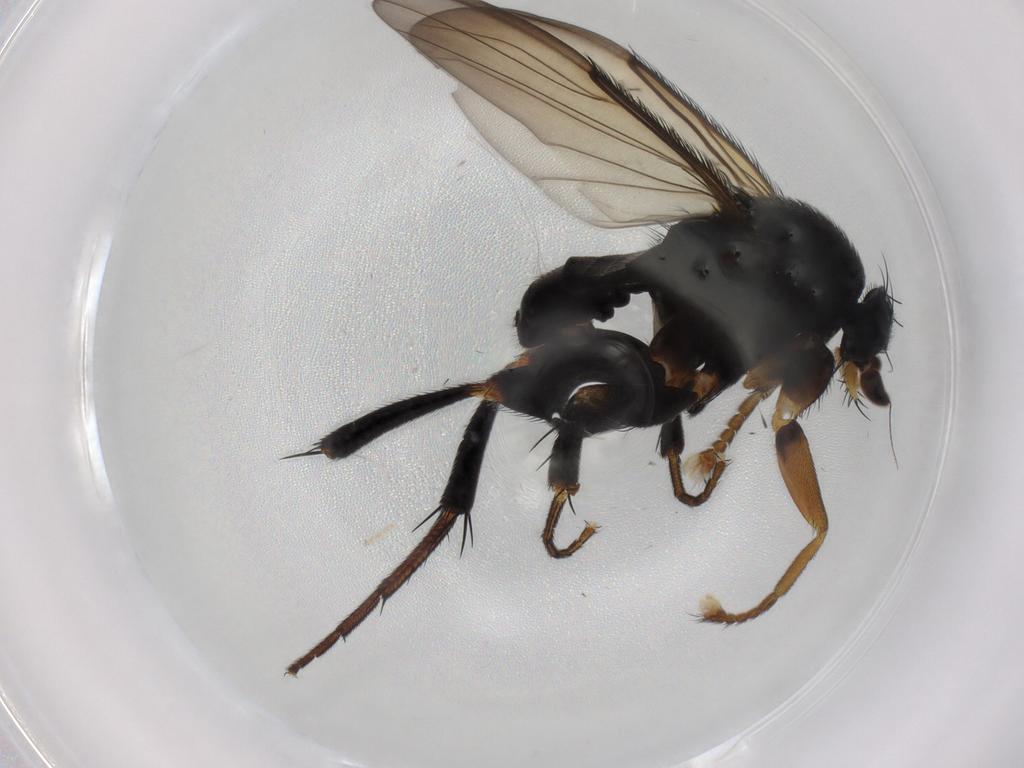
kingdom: Animalia
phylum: Arthropoda
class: Insecta
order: Diptera
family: Phoridae
